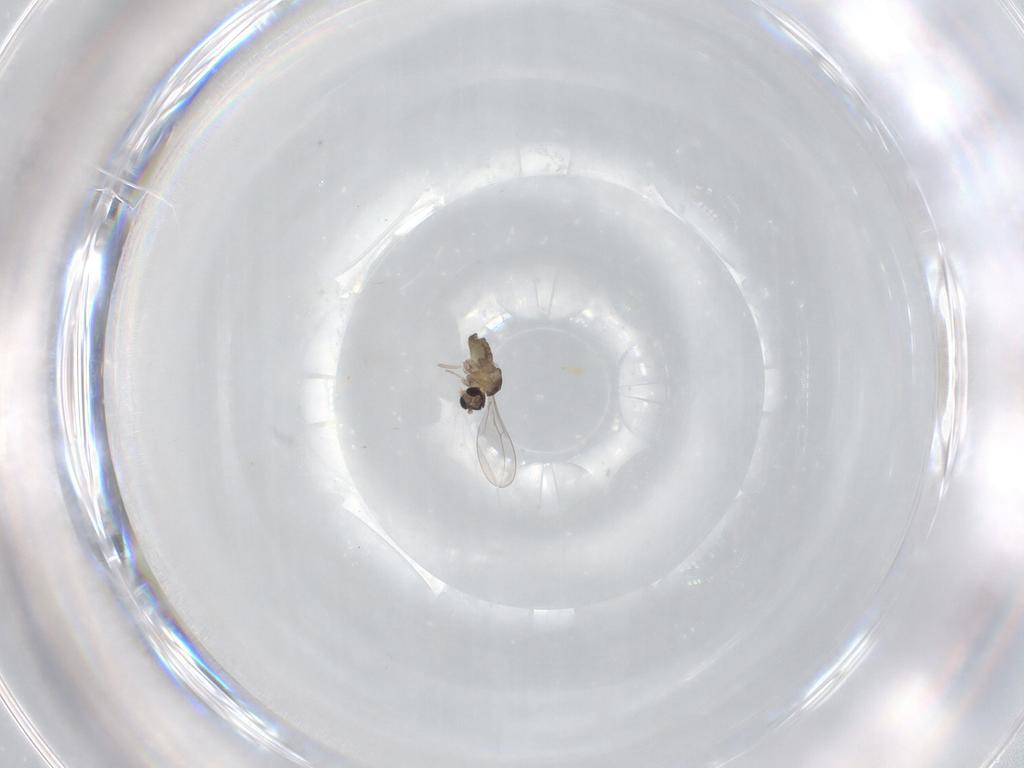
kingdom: Animalia
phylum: Arthropoda
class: Insecta
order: Diptera
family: Cecidomyiidae
